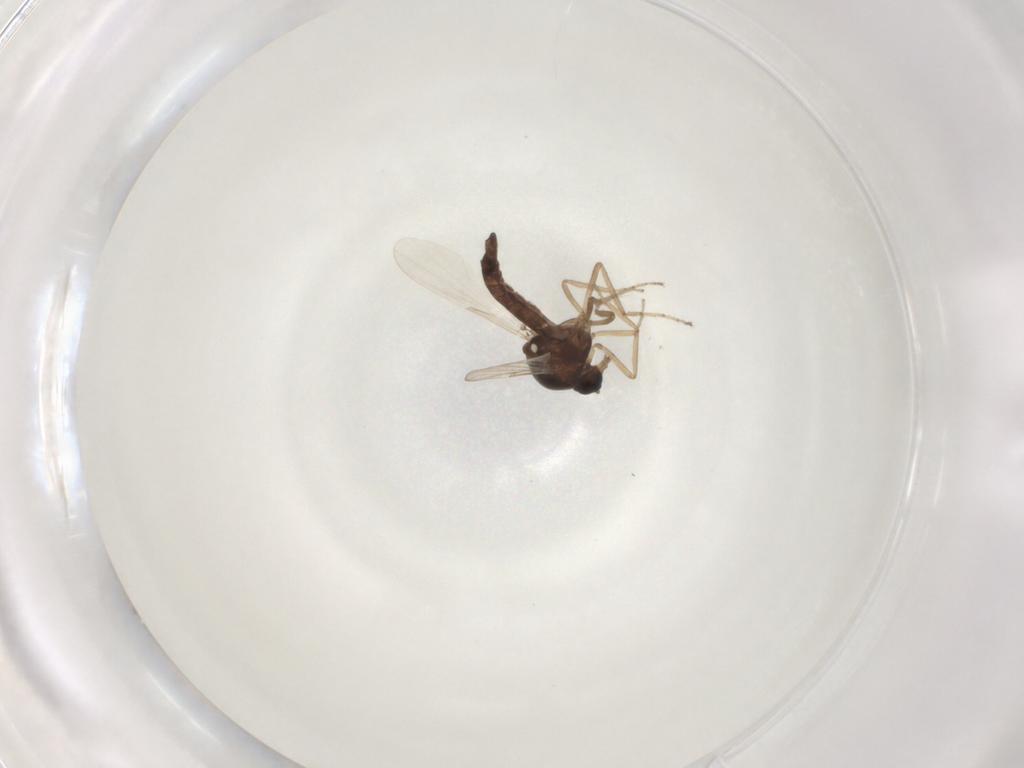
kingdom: Animalia
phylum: Arthropoda
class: Insecta
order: Diptera
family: Ceratopogonidae
